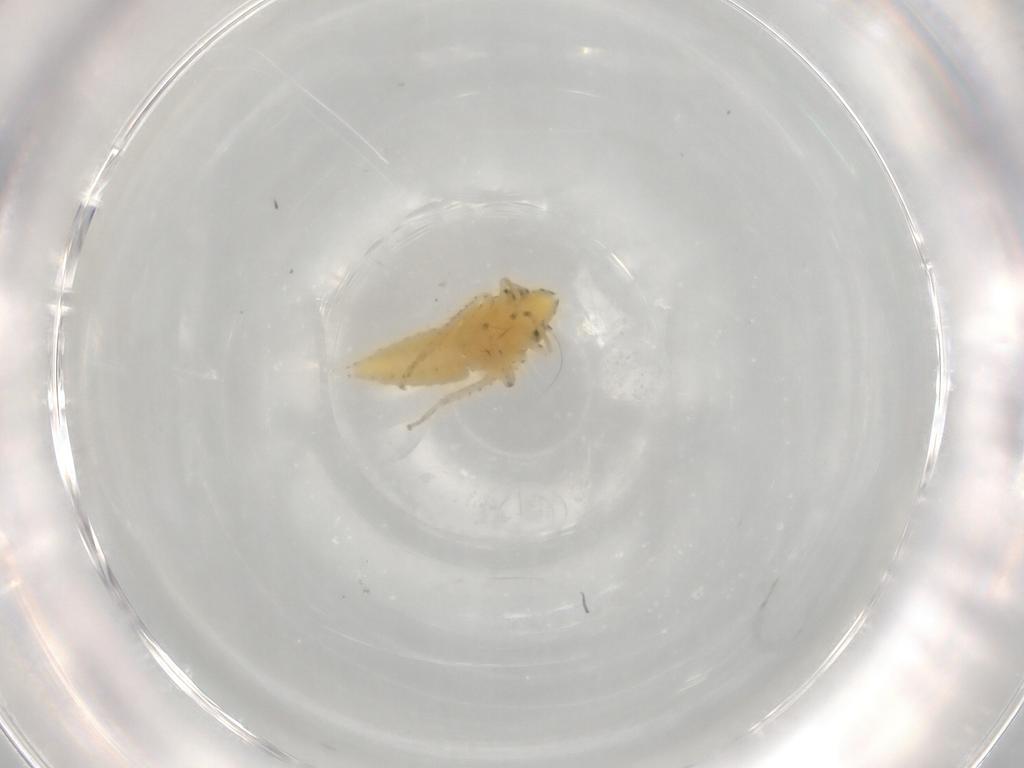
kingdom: Animalia
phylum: Arthropoda
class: Insecta
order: Hemiptera
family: Cicadellidae
